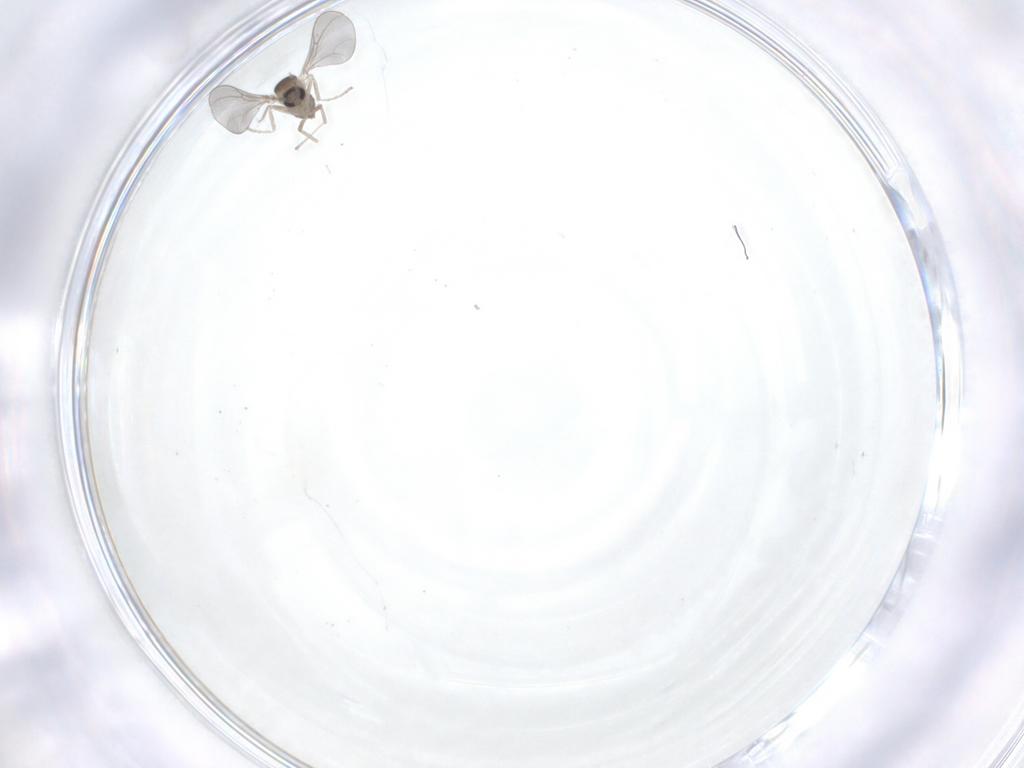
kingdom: Animalia
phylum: Arthropoda
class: Insecta
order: Diptera
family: Cecidomyiidae
